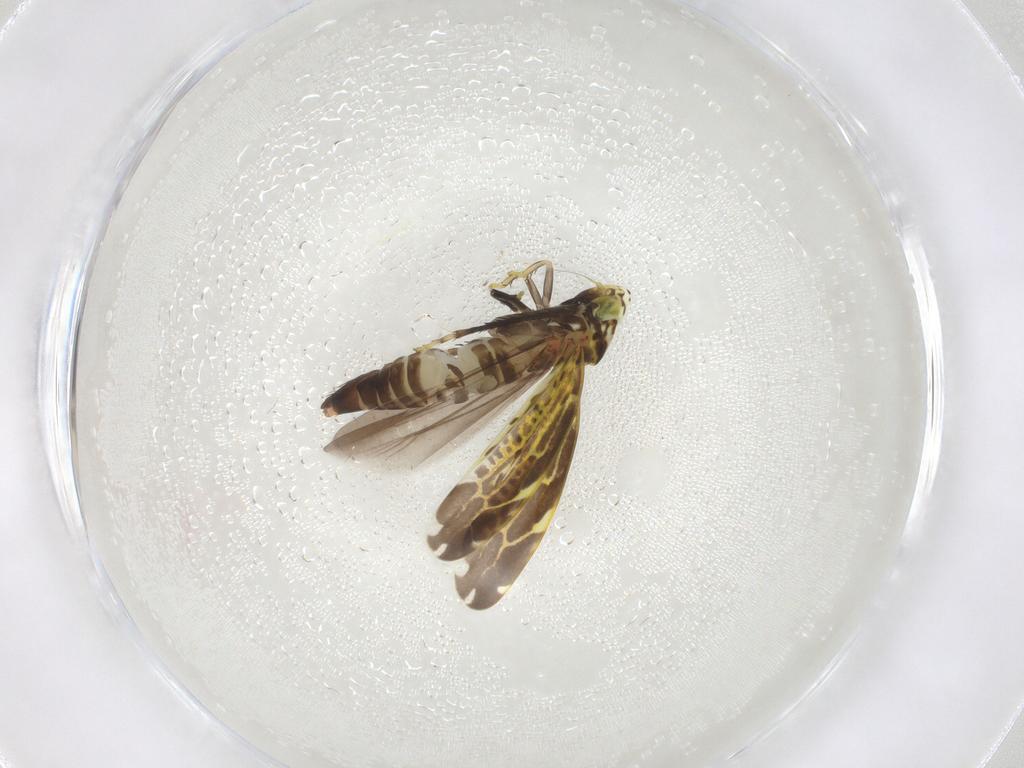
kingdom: Animalia
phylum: Arthropoda
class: Insecta
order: Hemiptera
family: Cicadellidae
